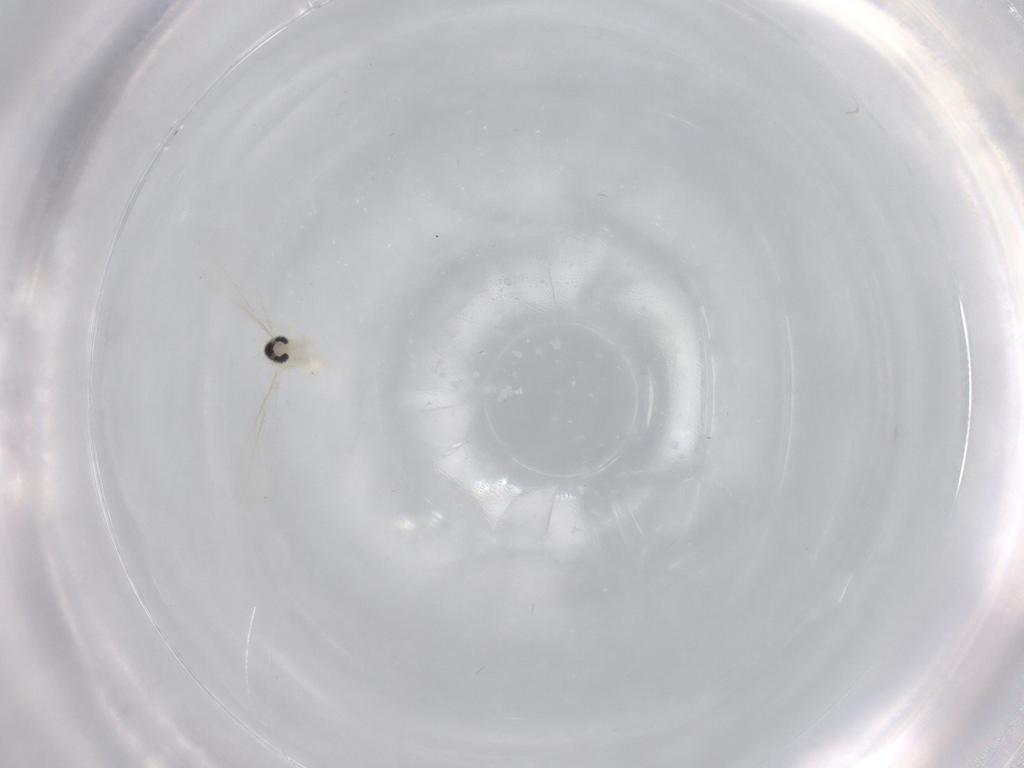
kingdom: Animalia
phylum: Arthropoda
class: Insecta
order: Diptera
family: Cecidomyiidae
